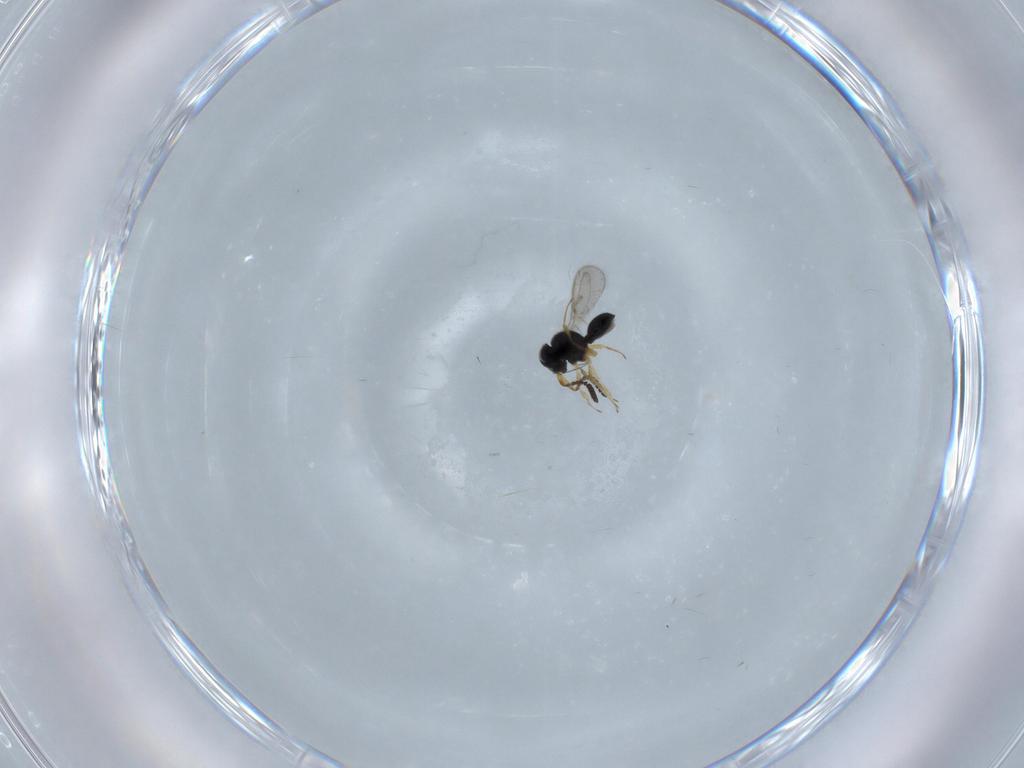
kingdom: Animalia
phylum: Arthropoda
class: Insecta
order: Hymenoptera
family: Scelionidae
